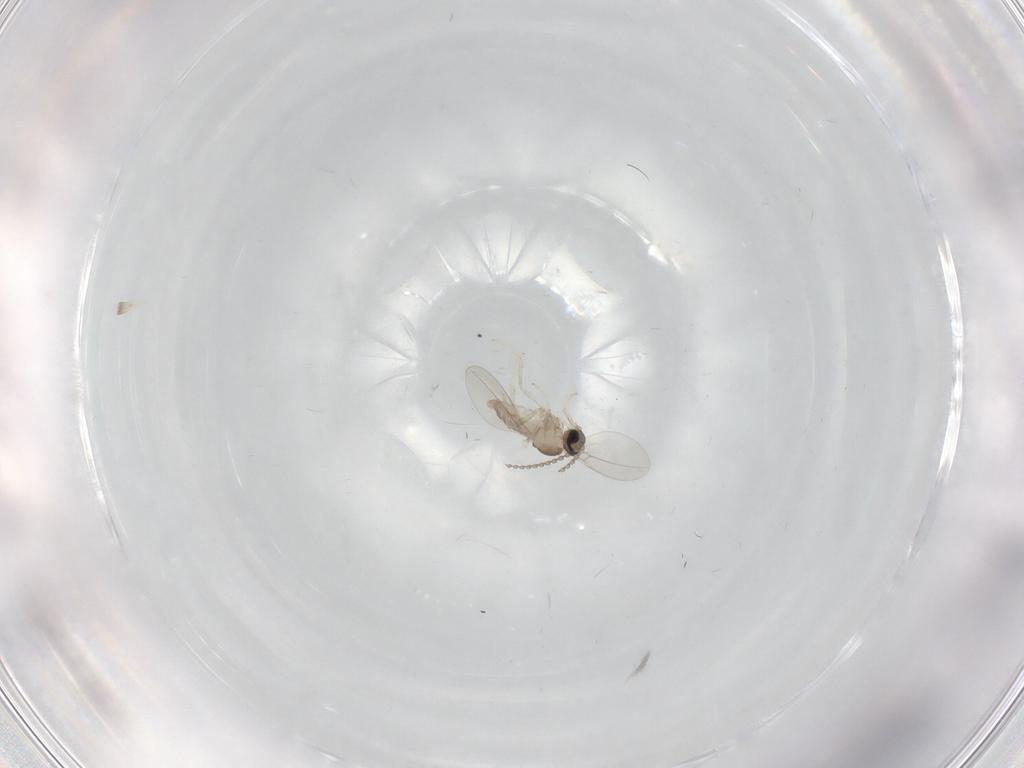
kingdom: Animalia
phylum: Arthropoda
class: Insecta
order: Diptera
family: Cecidomyiidae
